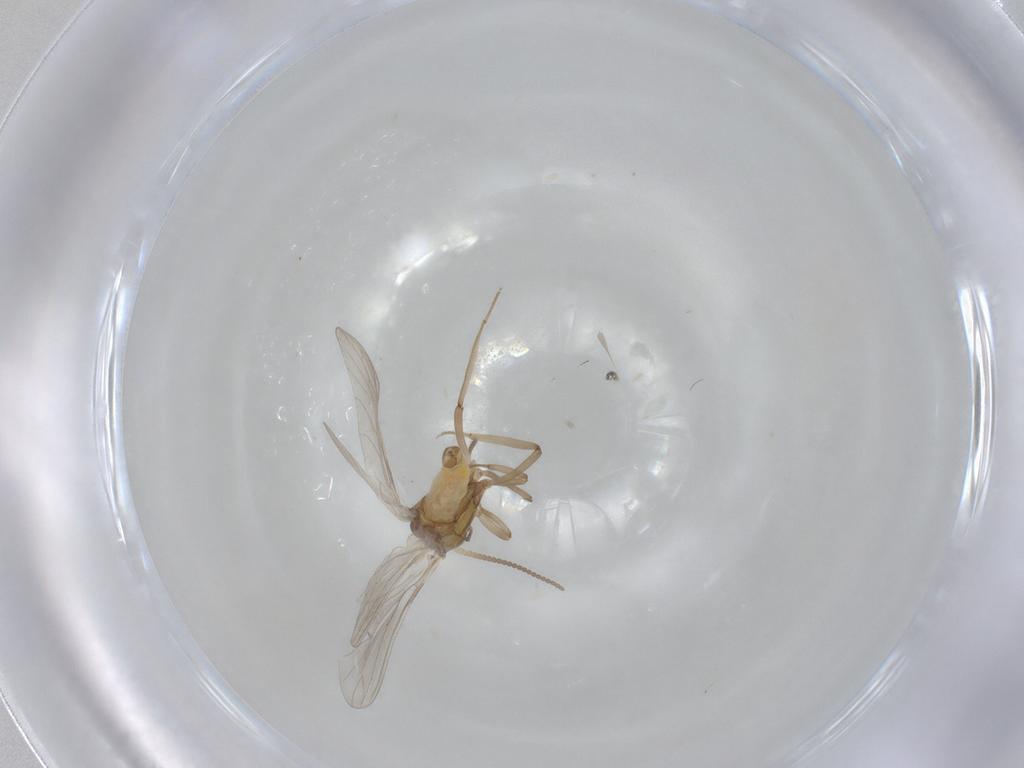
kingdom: Animalia
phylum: Arthropoda
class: Insecta
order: Neuroptera
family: Coniopterygidae
